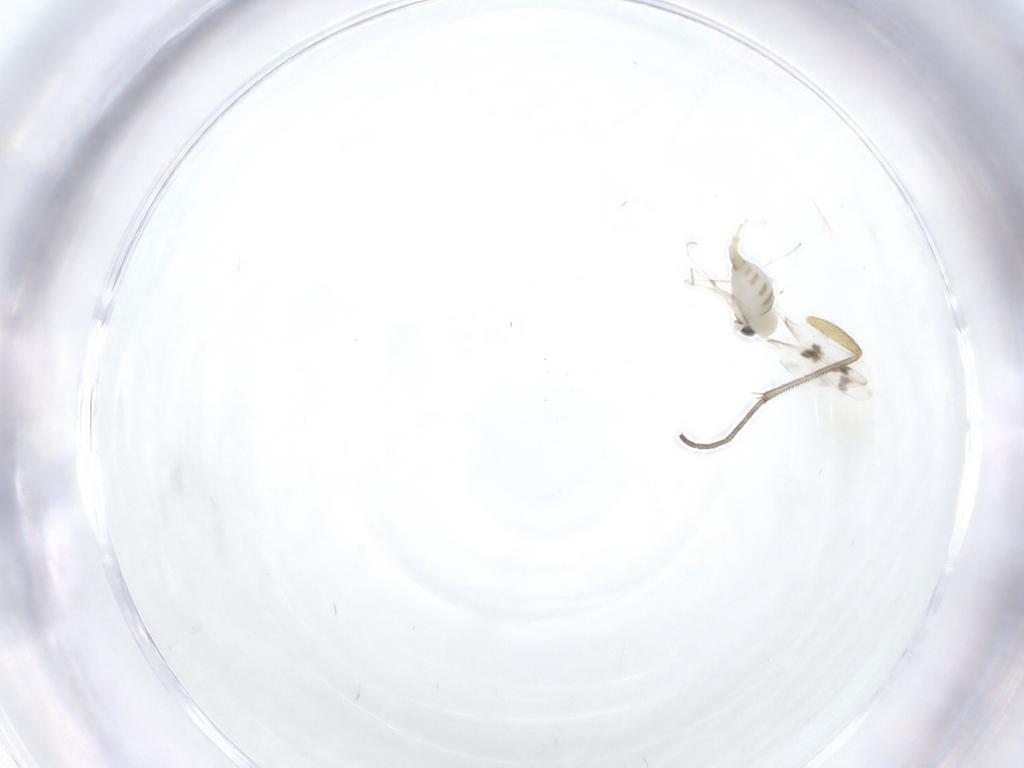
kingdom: Animalia
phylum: Arthropoda
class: Insecta
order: Diptera
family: Cecidomyiidae
